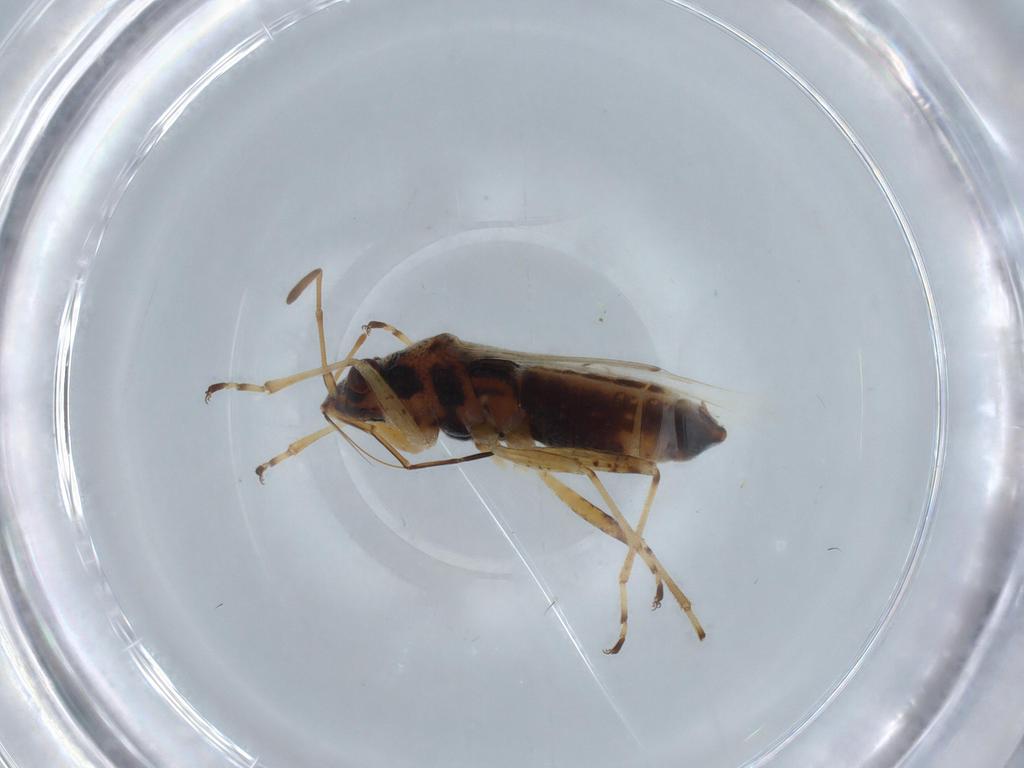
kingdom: Animalia
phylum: Arthropoda
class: Insecta
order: Hemiptera
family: Lygaeidae
